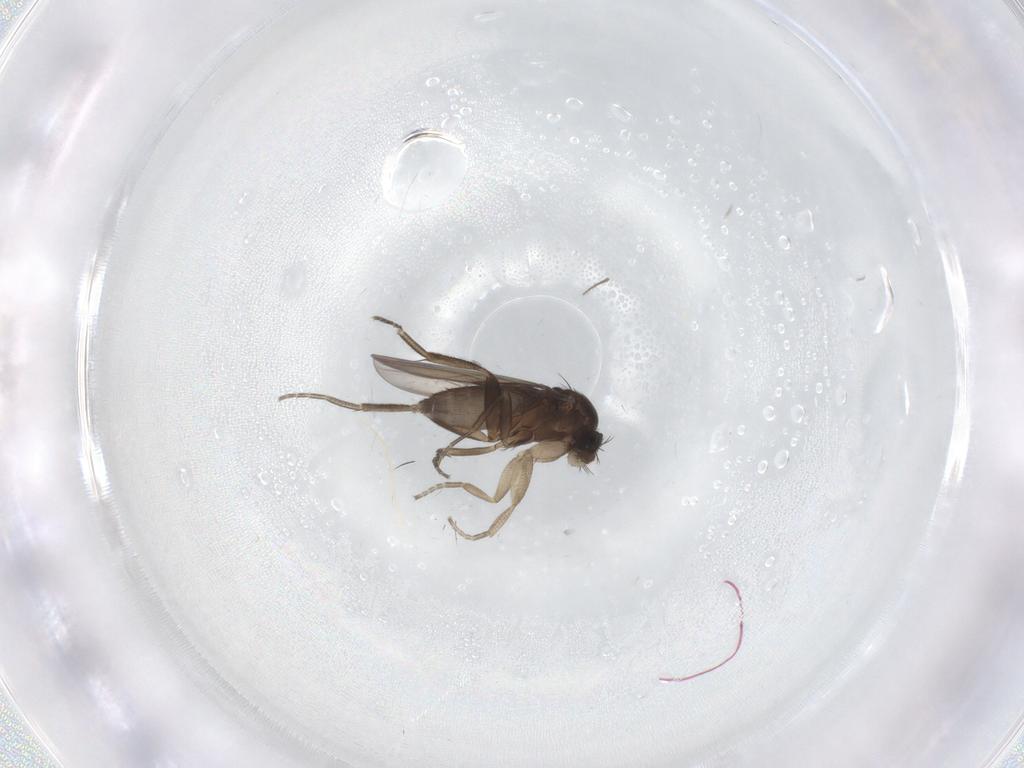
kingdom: Animalia
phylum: Arthropoda
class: Insecta
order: Diptera
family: Phoridae
